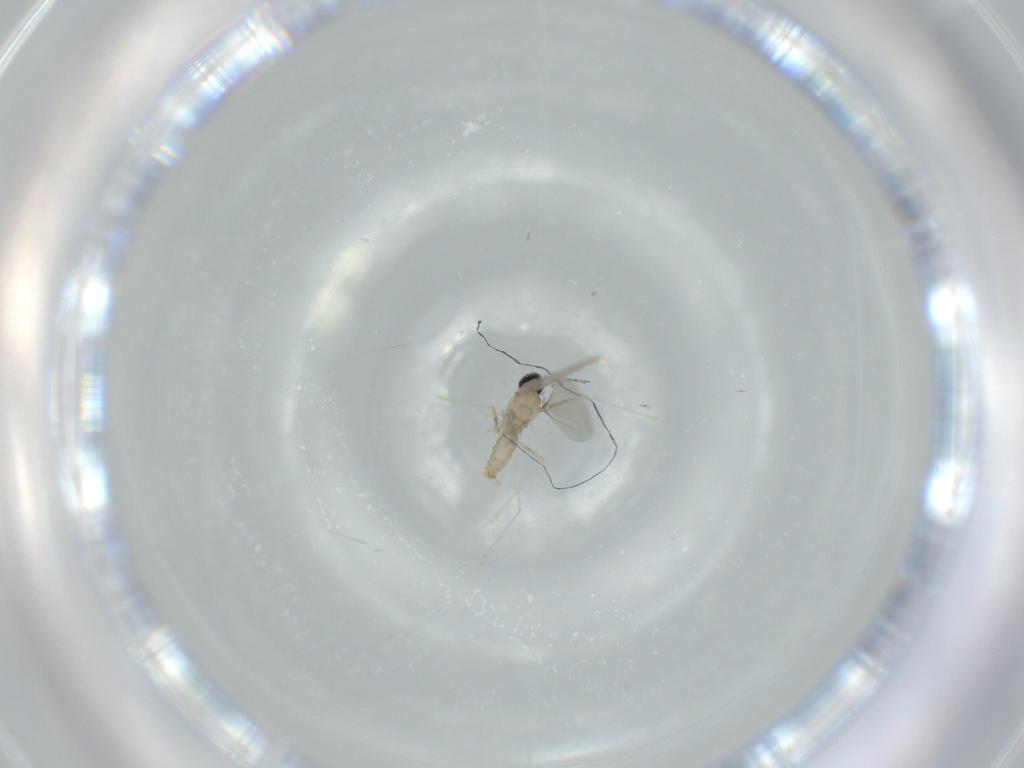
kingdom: Animalia
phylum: Arthropoda
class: Insecta
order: Diptera
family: Cecidomyiidae
